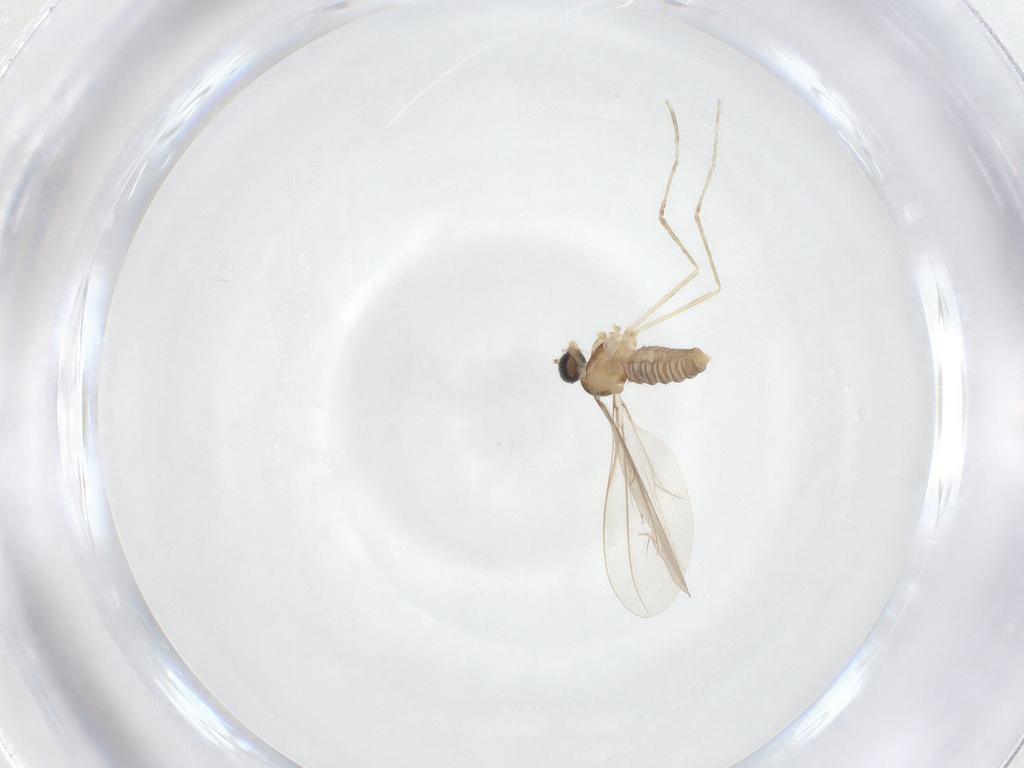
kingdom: Animalia
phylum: Arthropoda
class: Insecta
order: Diptera
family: Cecidomyiidae
